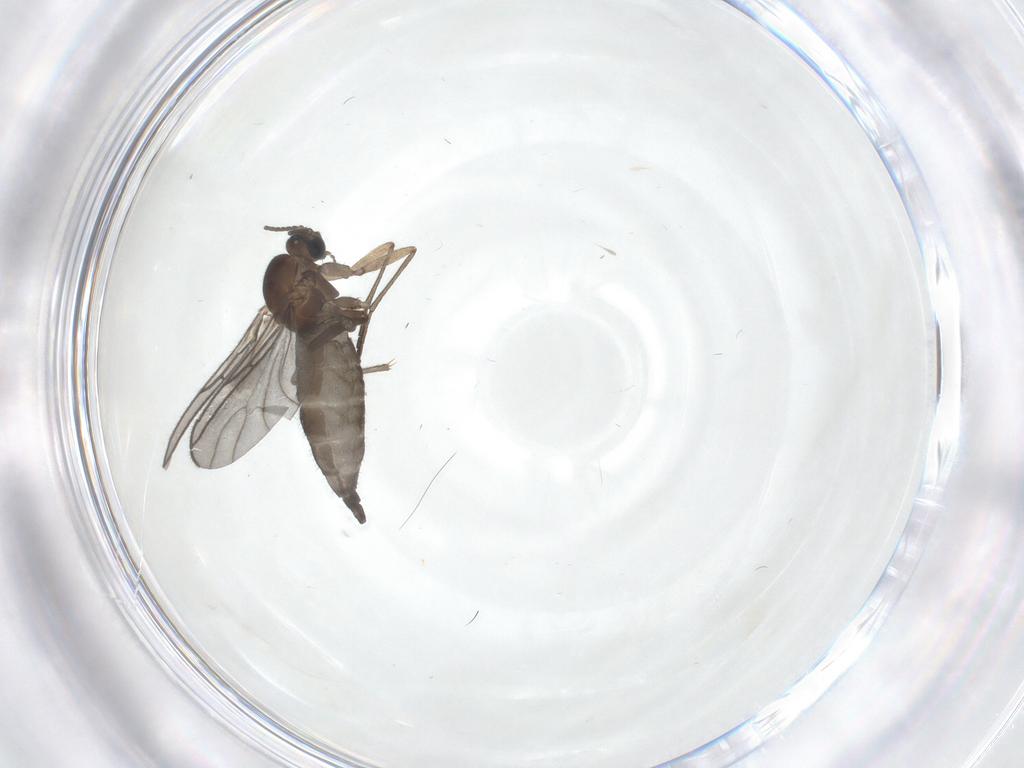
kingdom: Animalia
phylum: Arthropoda
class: Insecta
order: Diptera
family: Sciaridae
